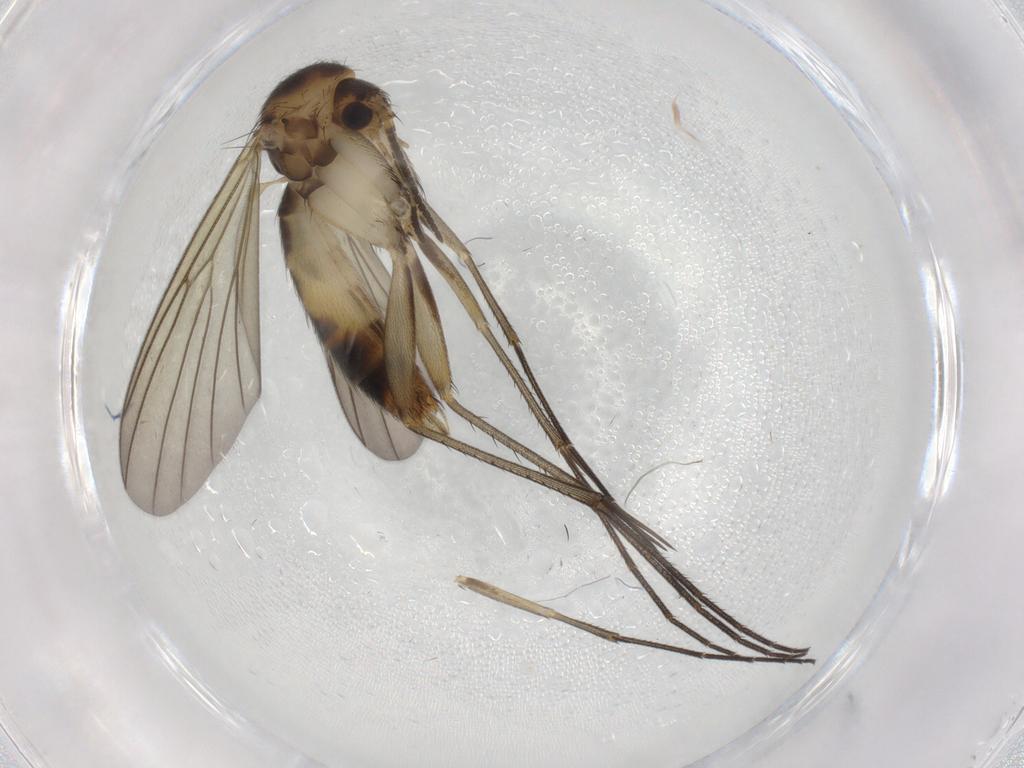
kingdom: Animalia
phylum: Arthropoda
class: Insecta
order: Diptera
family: Mycetophilidae
